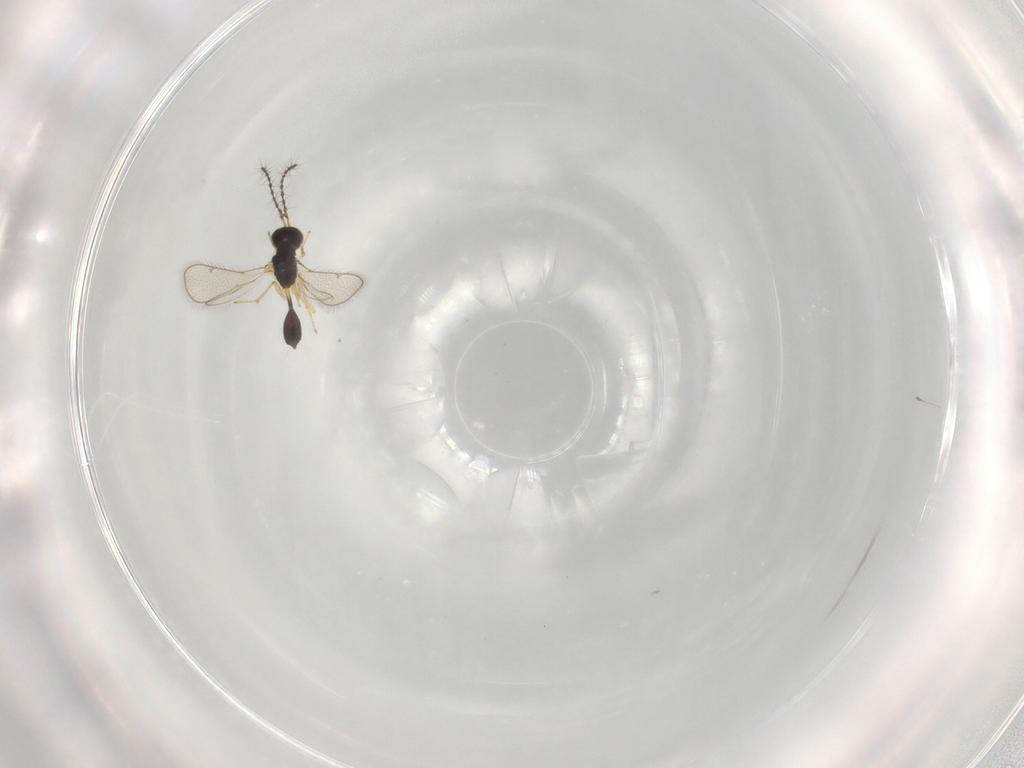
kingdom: Animalia
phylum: Arthropoda
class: Insecta
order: Hymenoptera
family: Diparidae
